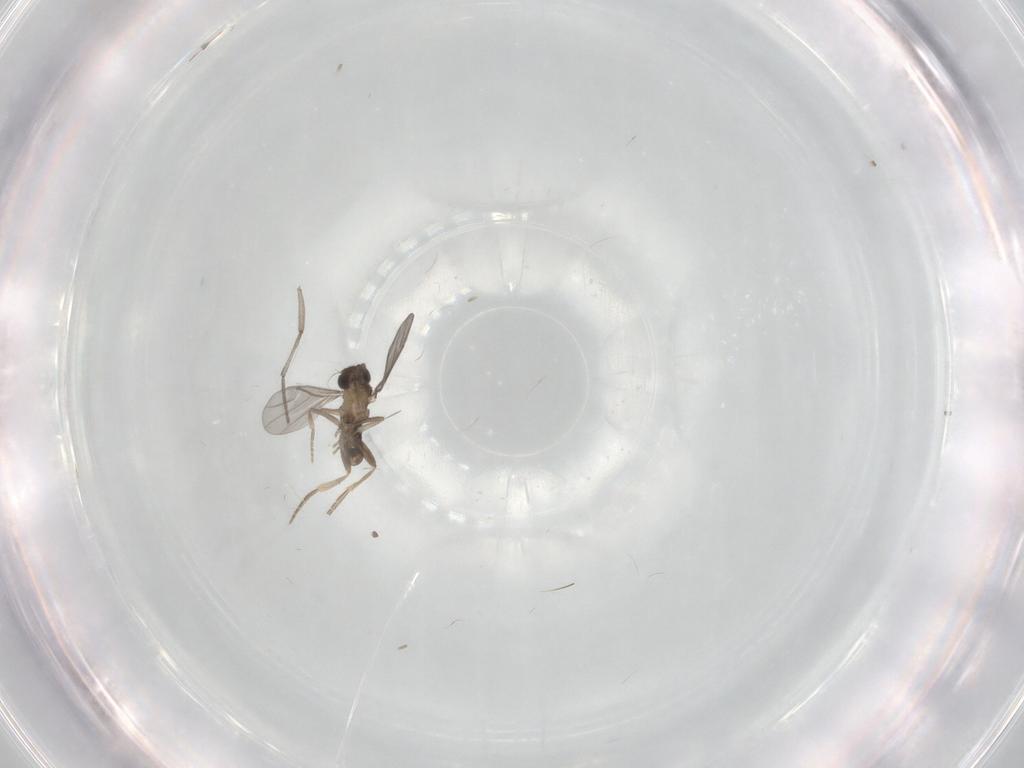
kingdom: Animalia
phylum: Arthropoda
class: Insecta
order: Diptera
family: Sciaridae
